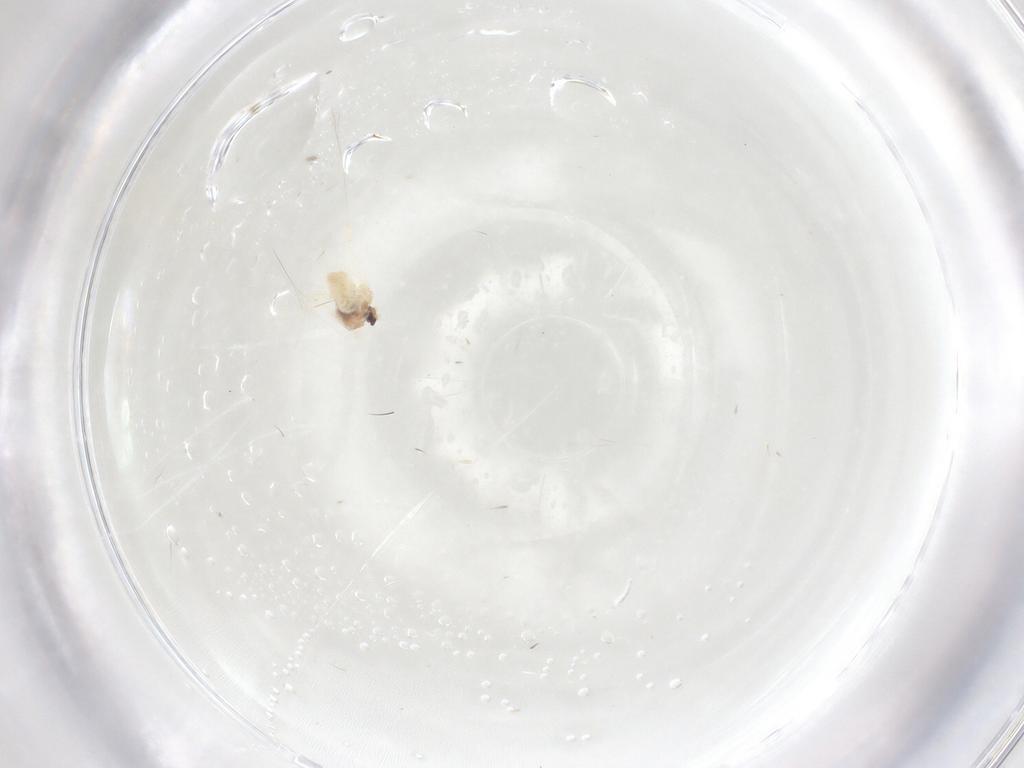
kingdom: Animalia
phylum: Arthropoda
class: Insecta
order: Diptera
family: Cecidomyiidae
